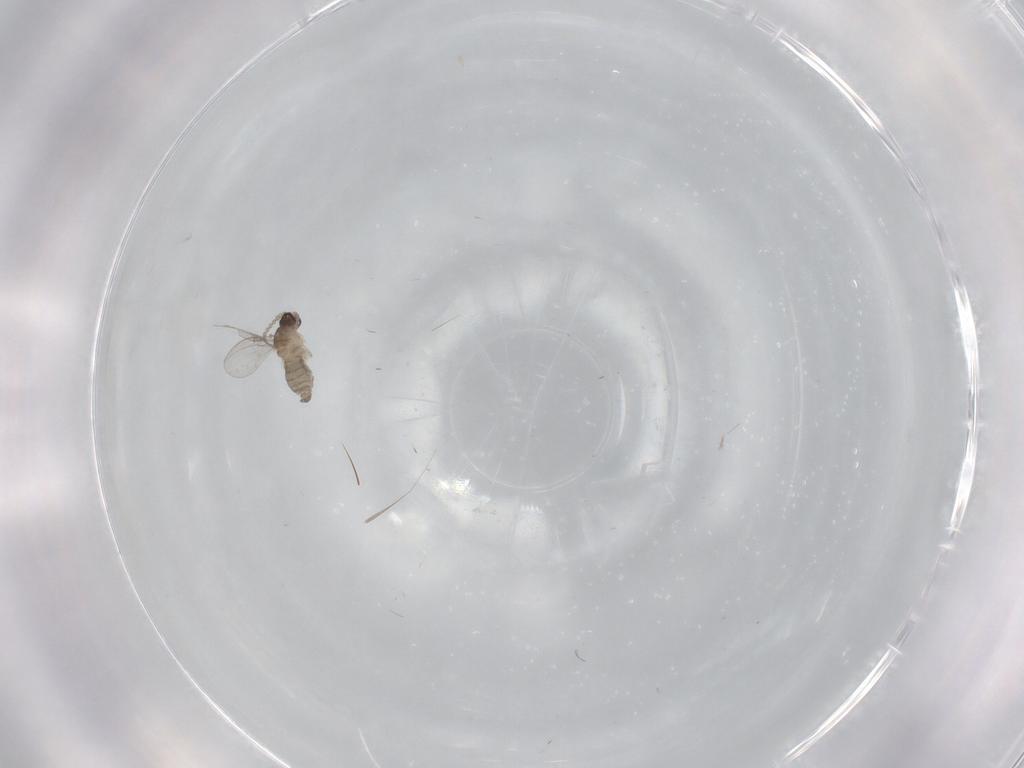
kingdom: Animalia
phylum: Arthropoda
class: Insecta
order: Diptera
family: Cecidomyiidae
